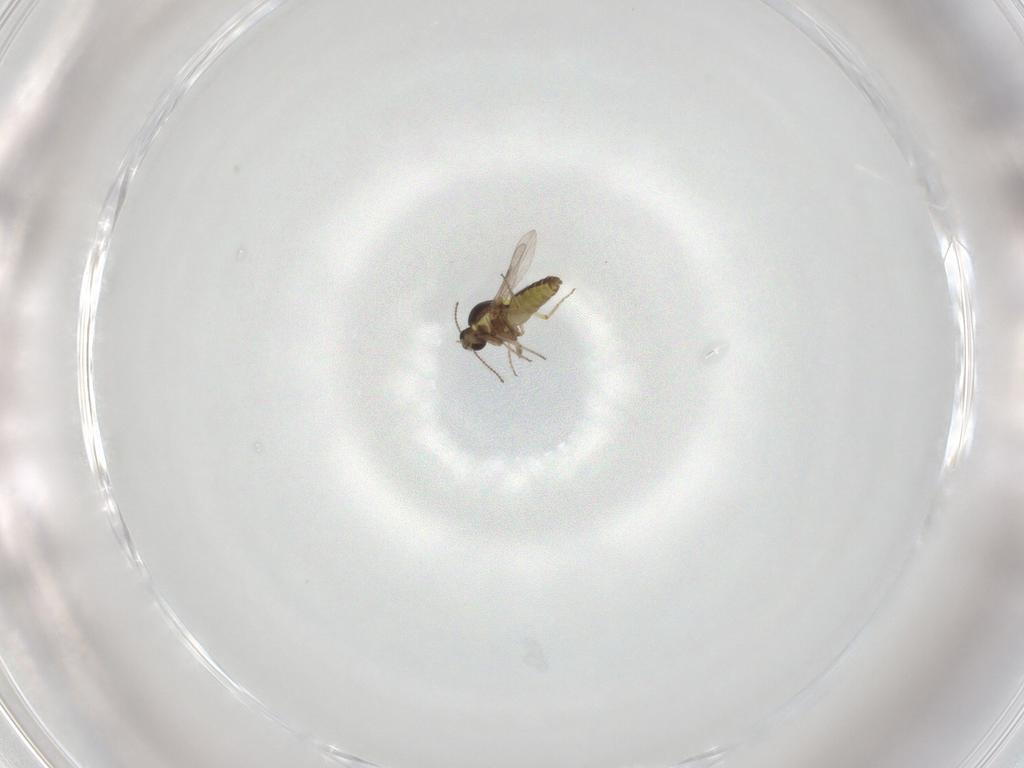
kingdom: Animalia
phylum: Arthropoda
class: Insecta
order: Diptera
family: Ceratopogonidae
